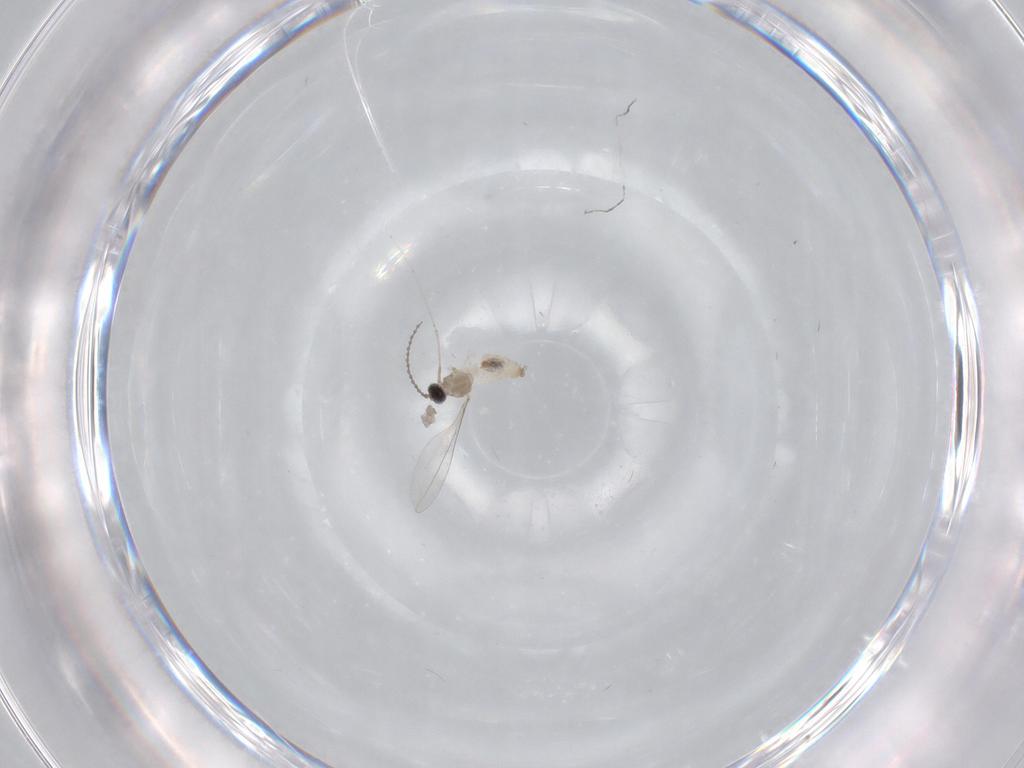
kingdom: Animalia
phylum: Arthropoda
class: Insecta
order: Diptera
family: Cecidomyiidae
